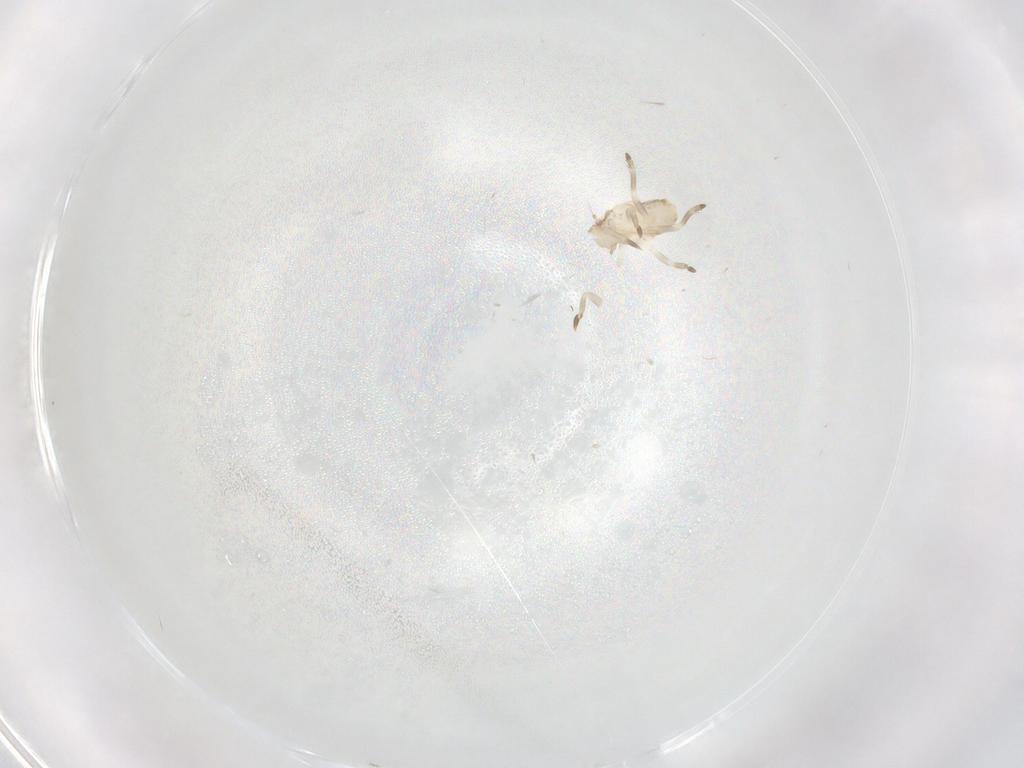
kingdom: Animalia
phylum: Arthropoda
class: Insecta
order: Hemiptera
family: Flatidae
